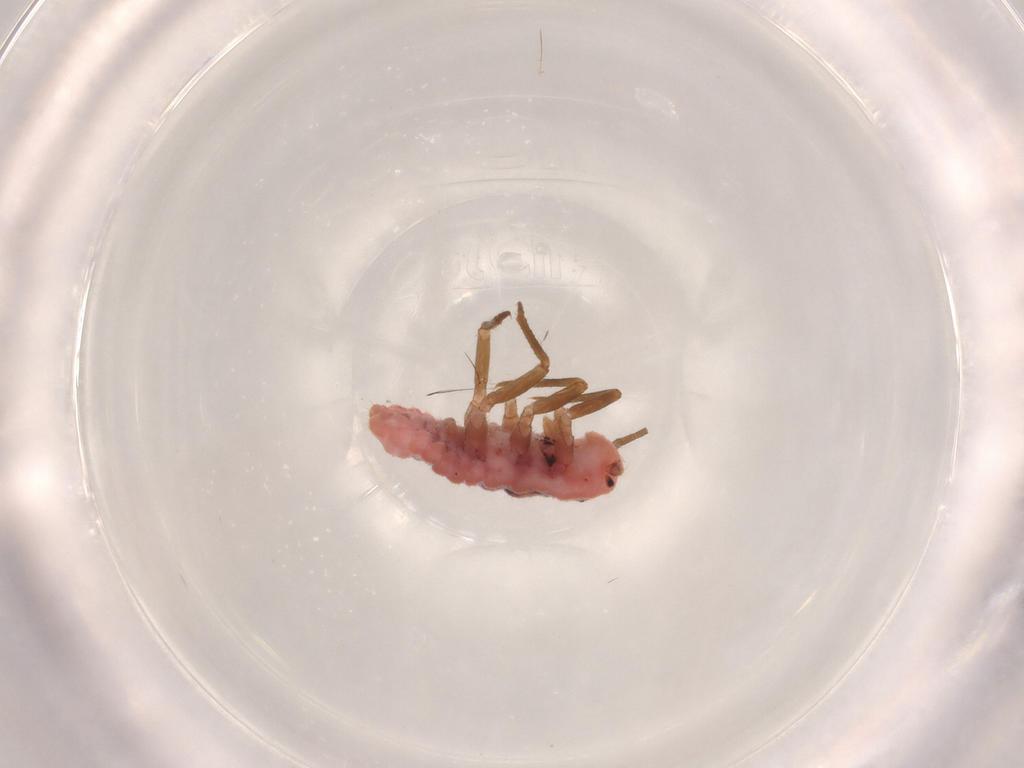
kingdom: Animalia
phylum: Arthropoda
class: Insecta
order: Hemiptera
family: Putoidae
